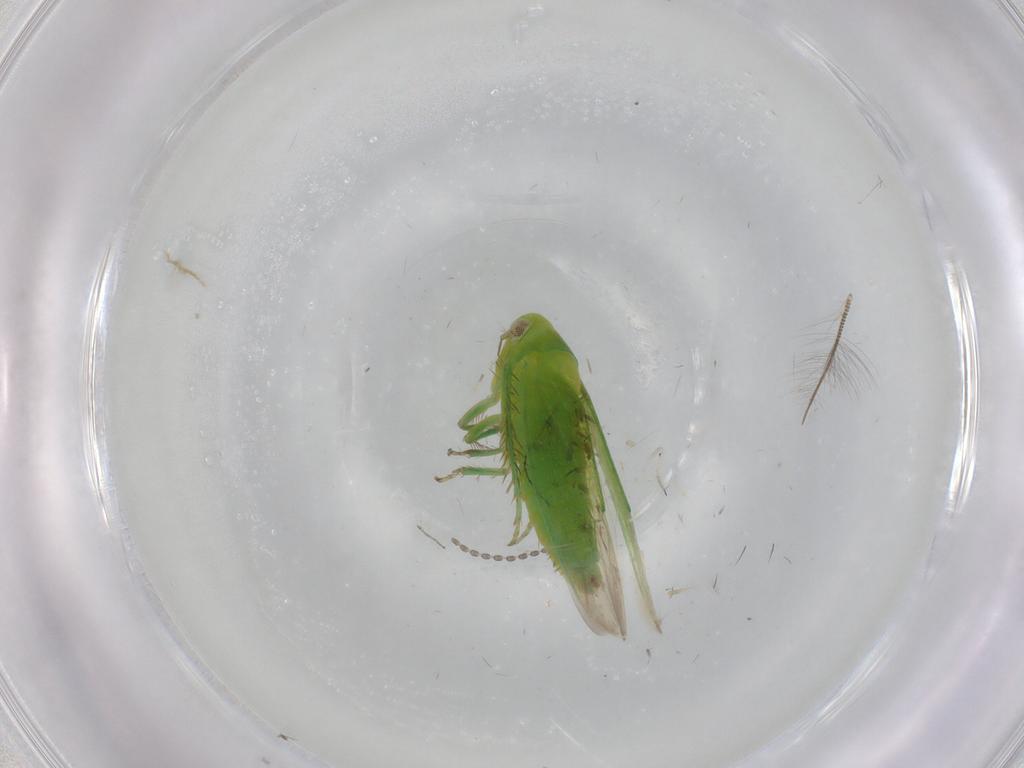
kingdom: Animalia
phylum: Arthropoda
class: Insecta
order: Hemiptera
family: Cicadellidae
